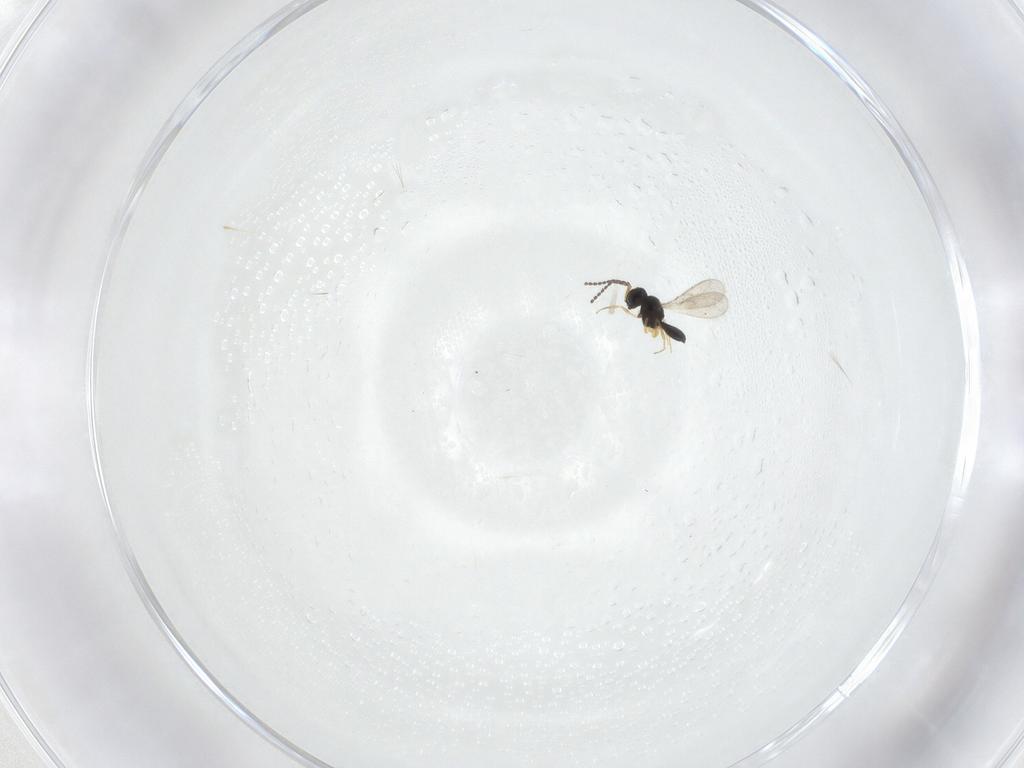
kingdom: Animalia
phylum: Arthropoda
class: Insecta
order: Hymenoptera
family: Scelionidae
